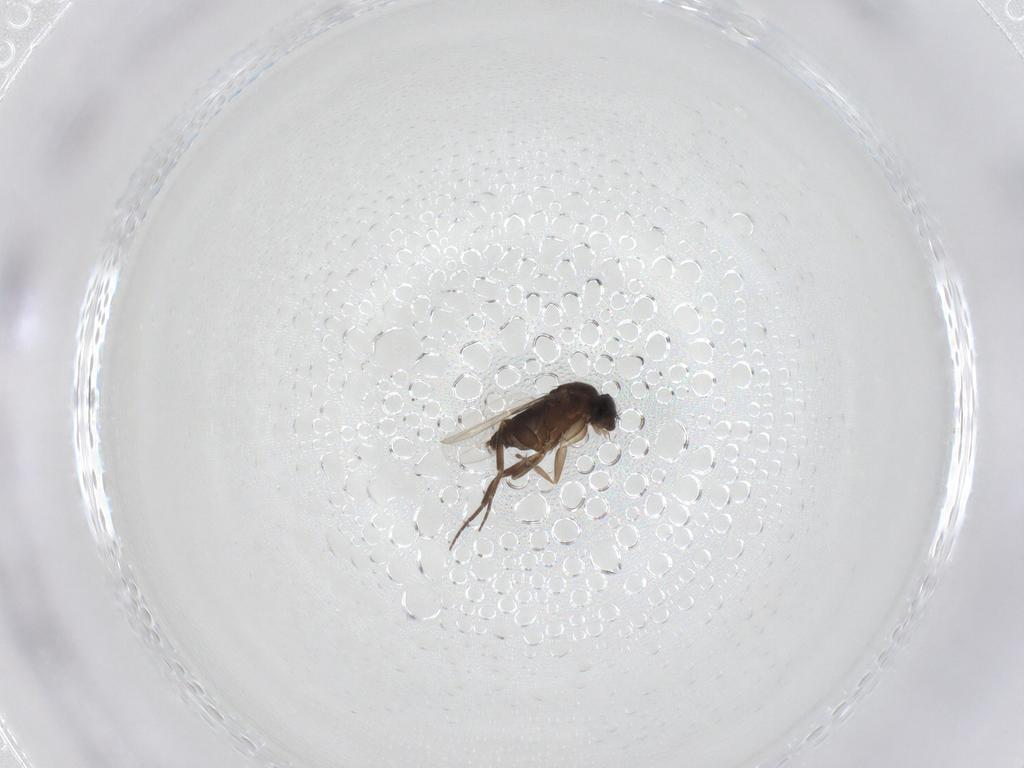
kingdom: Animalia
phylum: Arthropoda
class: Insecta
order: Diptera
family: Phoridae
